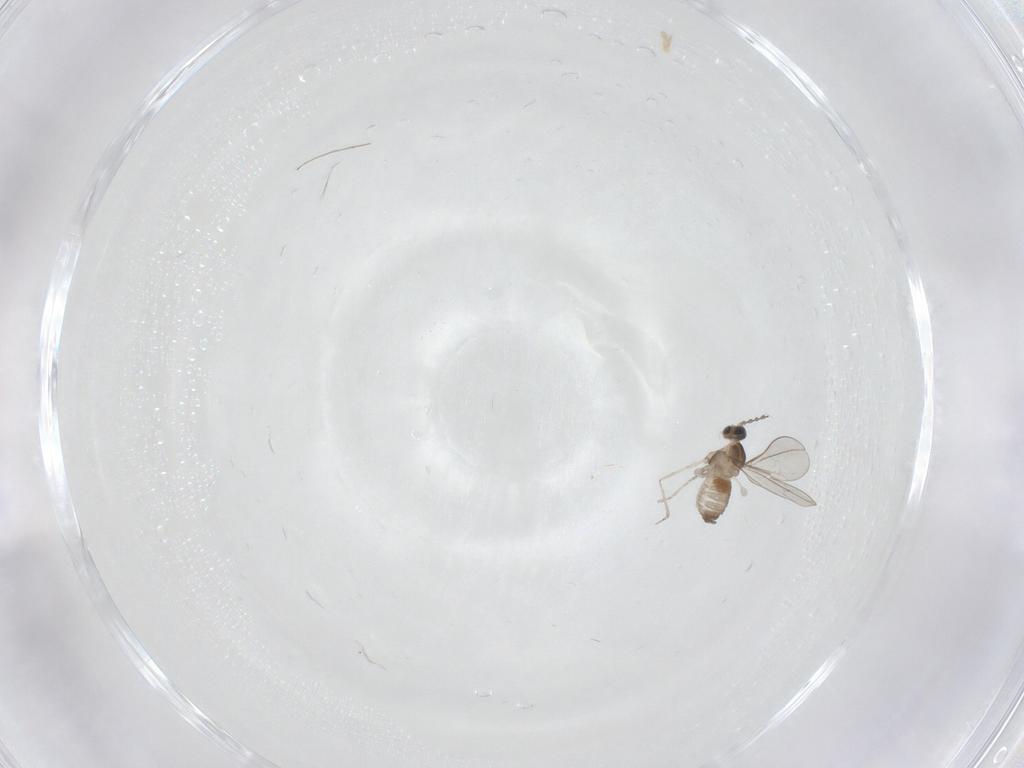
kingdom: Animalia
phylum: Arthropoda
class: Insecta
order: Diptera
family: Cecidomyiidae
